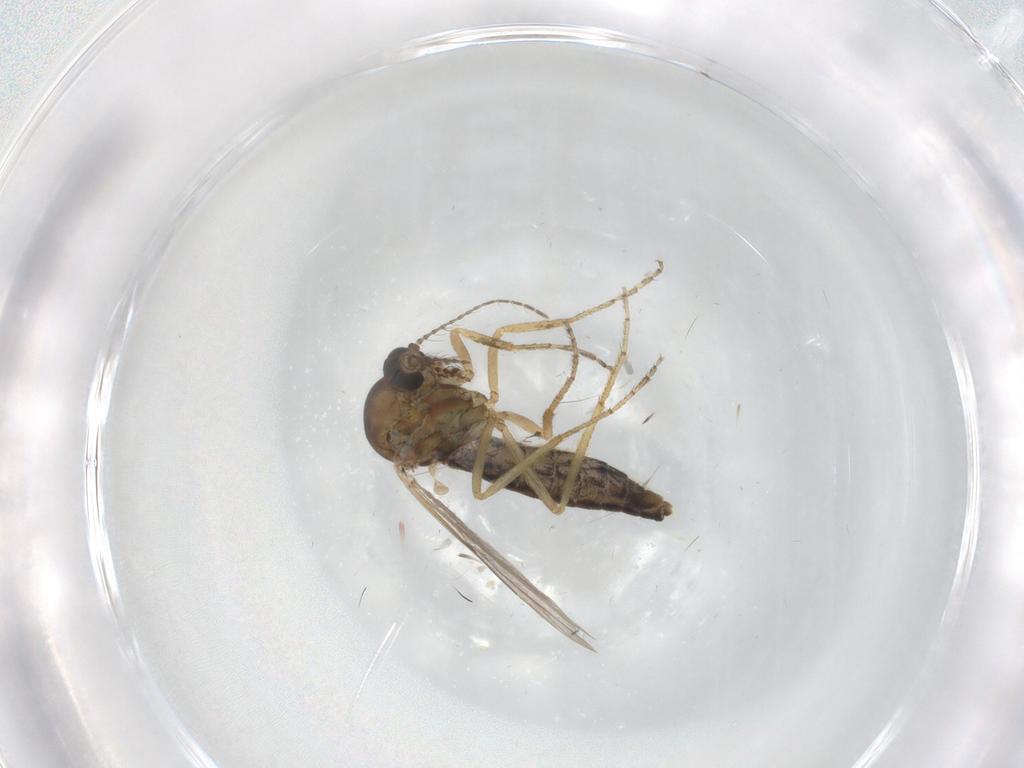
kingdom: Animalia
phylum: Arthropoda
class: Insecta
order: Diptera
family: Ceratopogonidae
